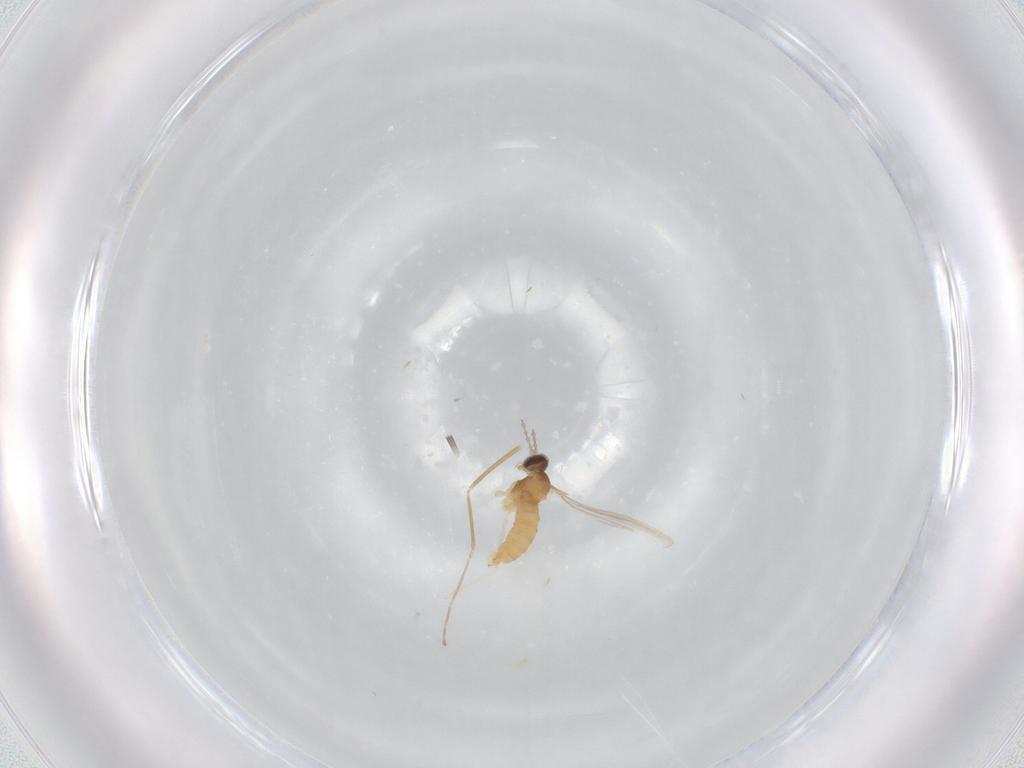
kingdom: Animalia
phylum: Arthropoda
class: Insecta
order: Diptera
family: Cecidomyiidae
